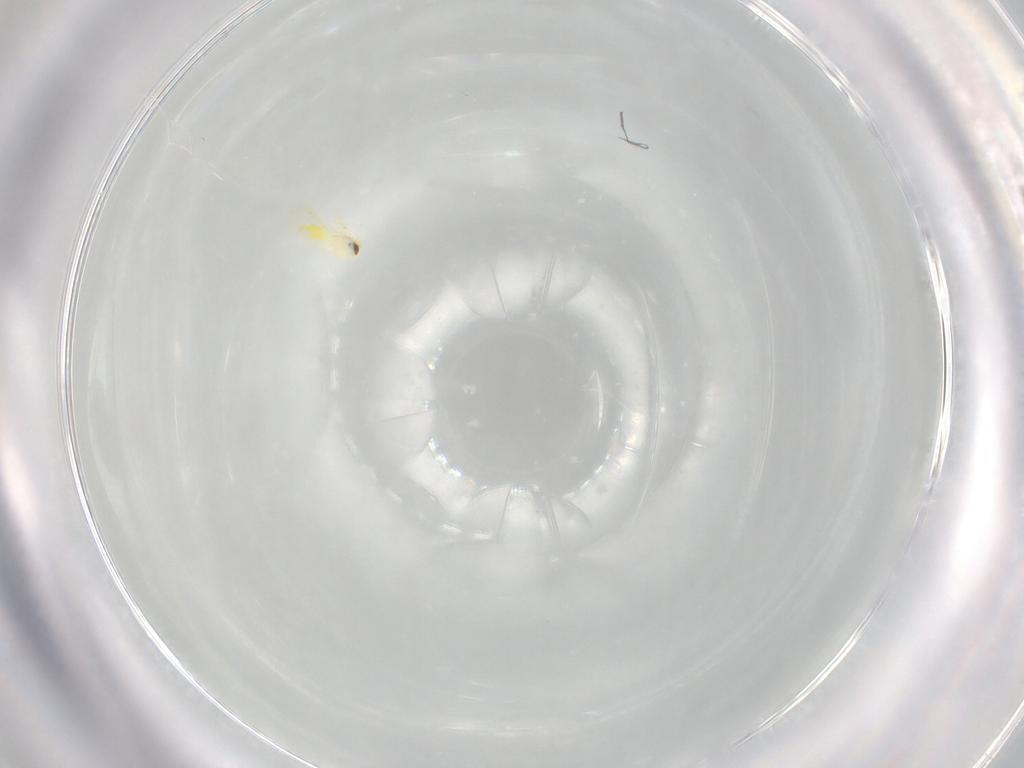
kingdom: Animalia
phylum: Arthropoda
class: Insecta
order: Hemiptera
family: Aleyrodidae
